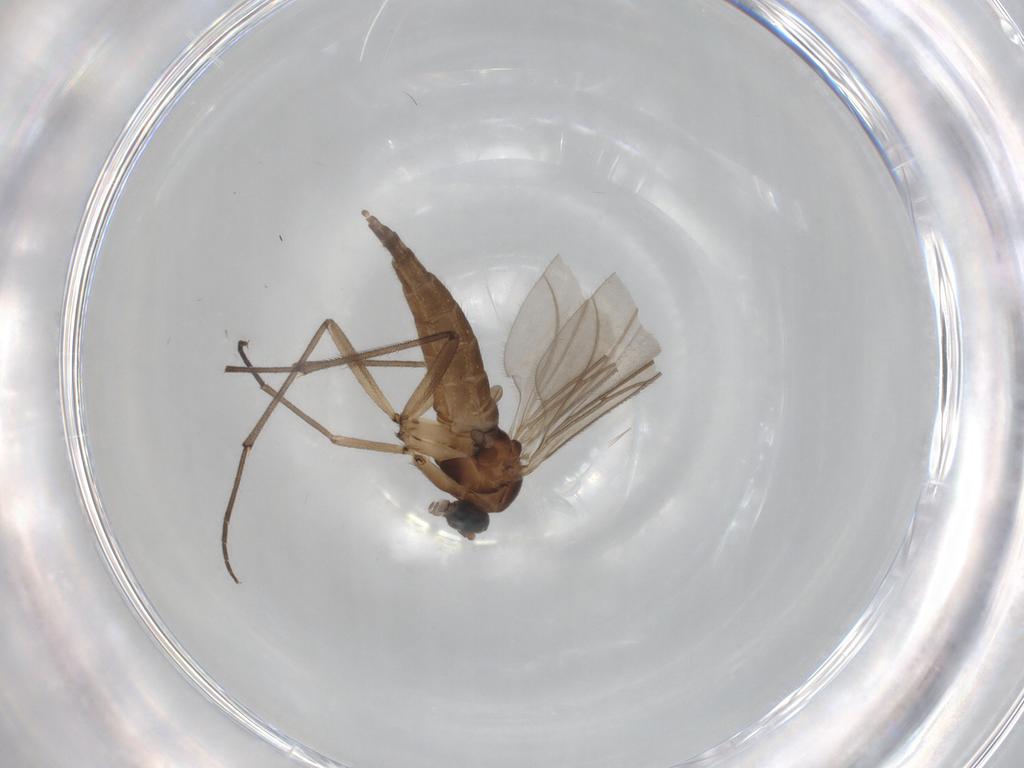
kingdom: Animalia
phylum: Arthropoda
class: Insecta
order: Diptera
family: Sciaridae
